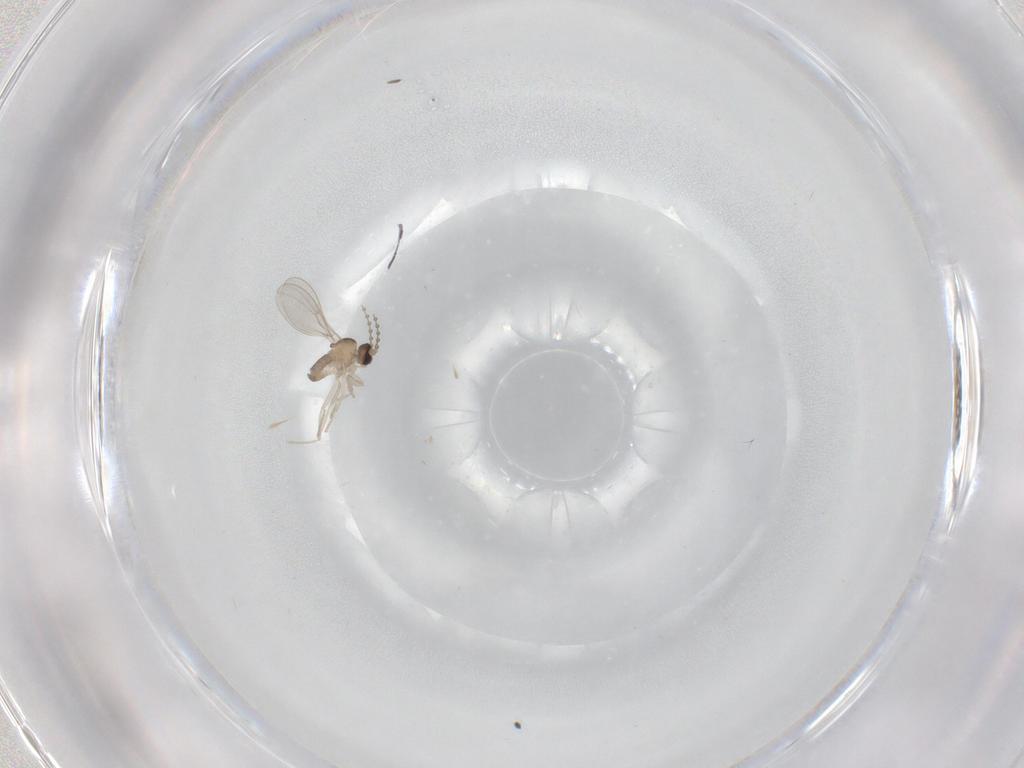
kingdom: Animalia
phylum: Arthropoda
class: Insecta
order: Diptera
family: Cecidomyiidae
